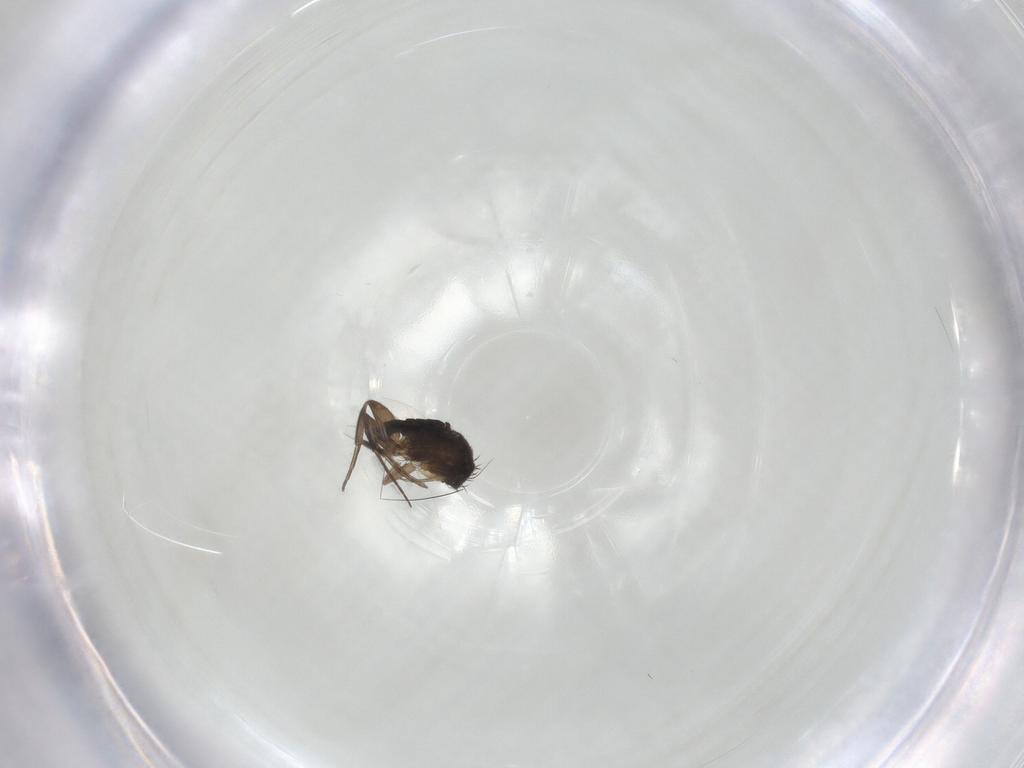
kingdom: Animalia
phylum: Arthropoda
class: Insecta
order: Diptera
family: Phoridae
